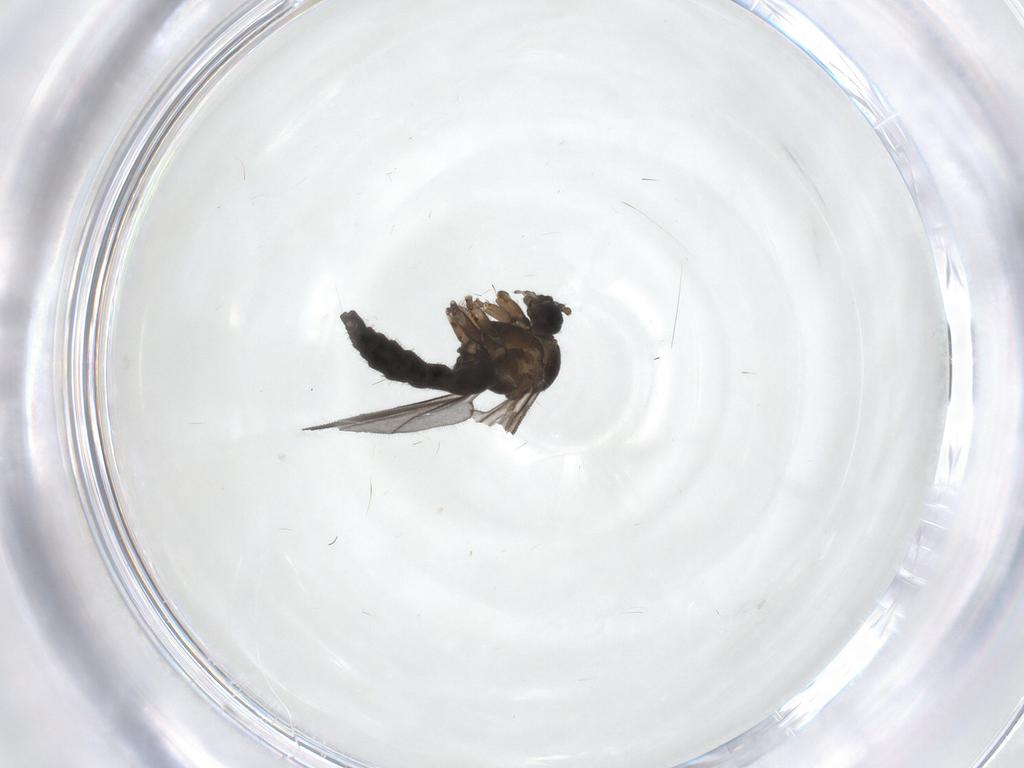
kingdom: Animalia
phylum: Arthropoda
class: Insecta
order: Diptera
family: Sciaridae
